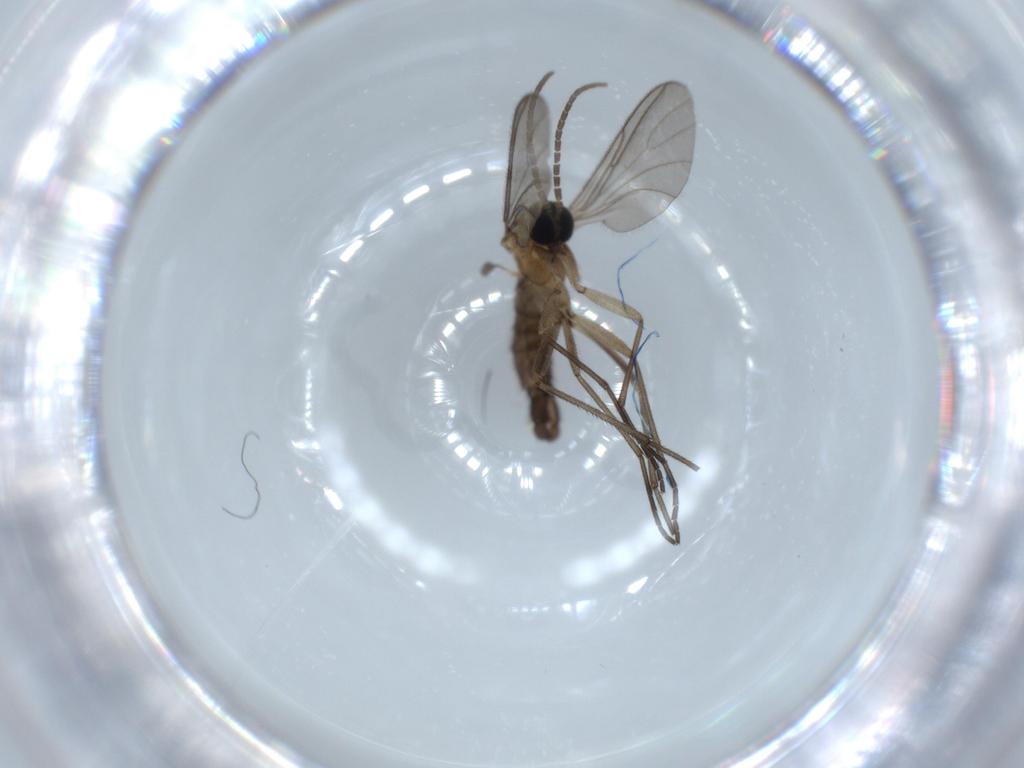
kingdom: Animalia
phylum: Arthropoda
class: Insecta
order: Diptera
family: Sciaridae
